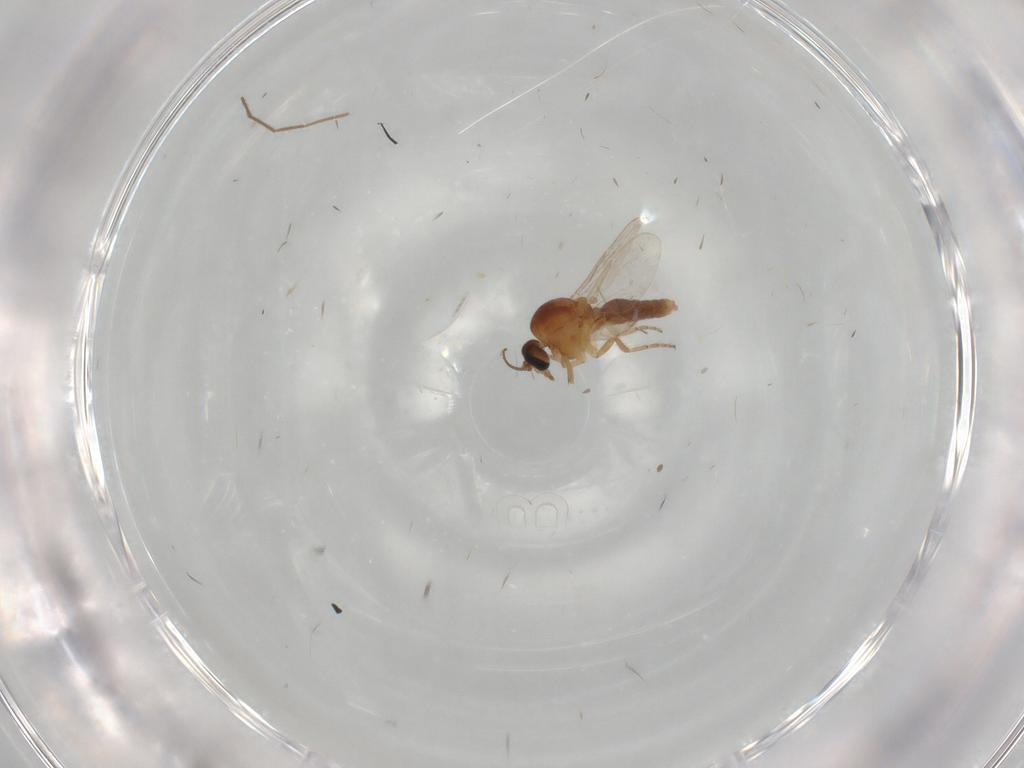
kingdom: Animalia
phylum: Arthropoda
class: Insecta
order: Diptera
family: Ceratopogonidae
